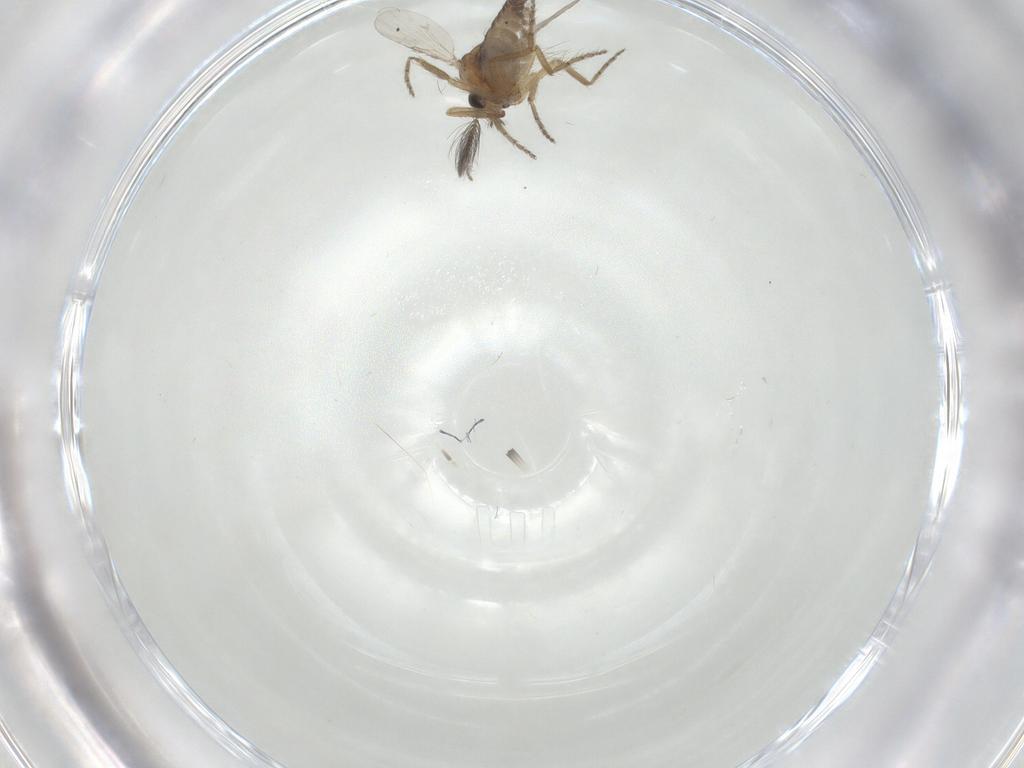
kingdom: Animalia
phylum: Arthropoda
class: Insecta
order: Diptera
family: Ceratopogonidae
